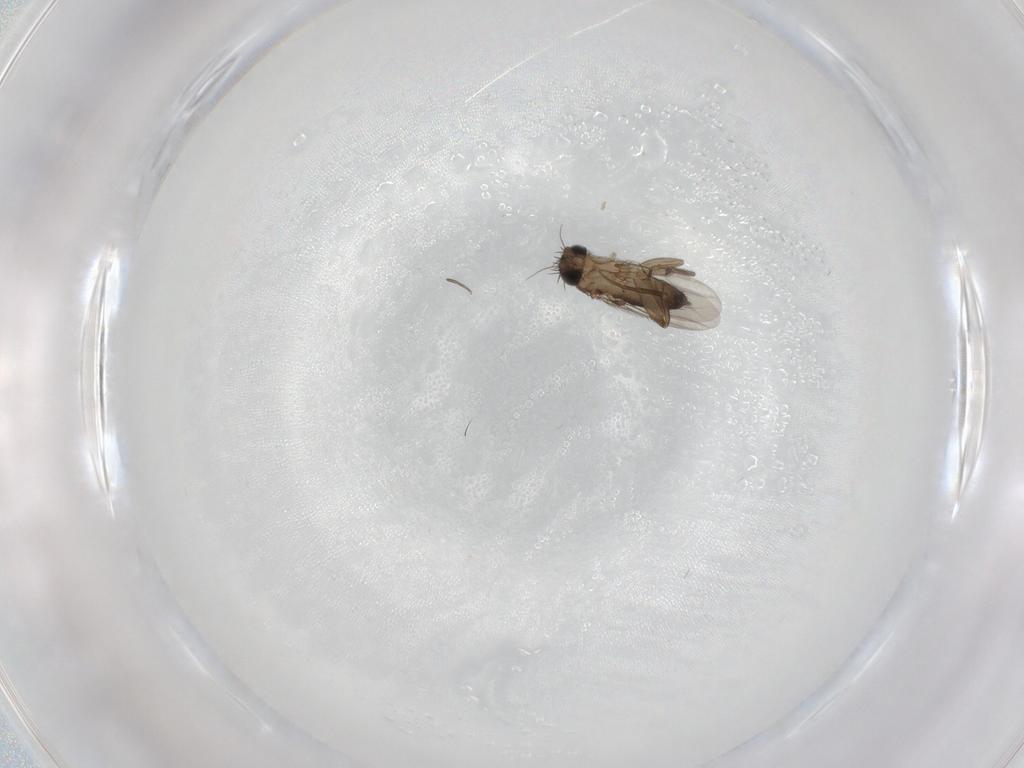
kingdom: Animalia
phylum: Arthropoda
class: Insecta
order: Diptera
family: Phoridae
